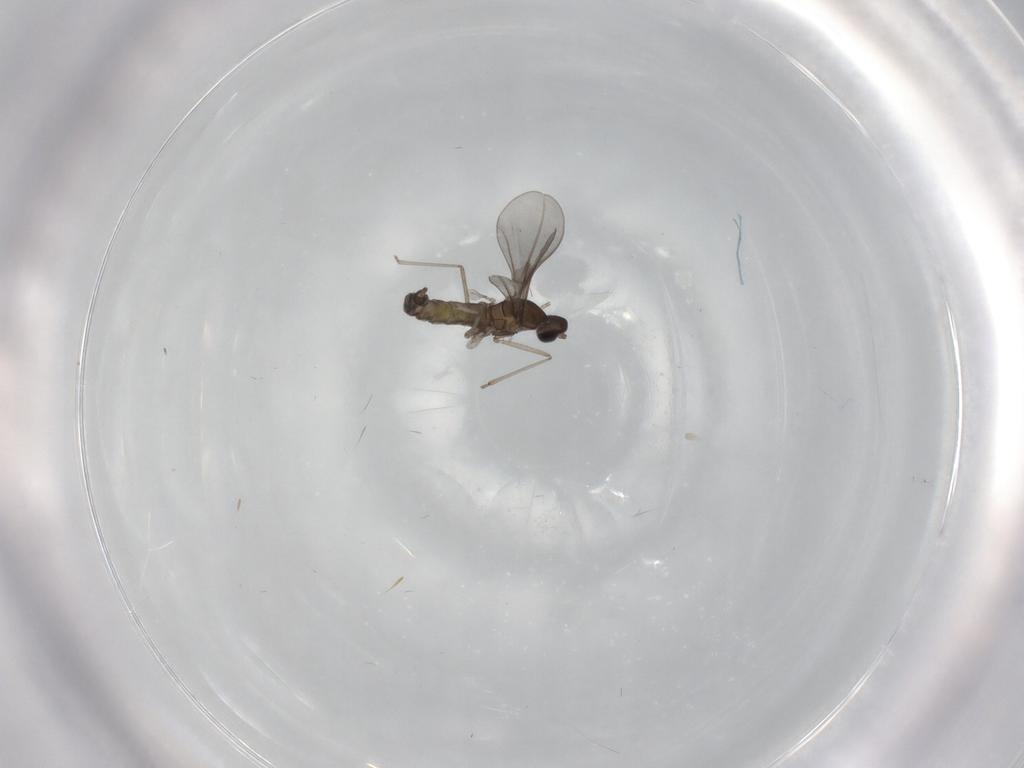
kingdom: Animalia
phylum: Arthropoda
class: Insecta
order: Diptera
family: Cecidomyiidae
